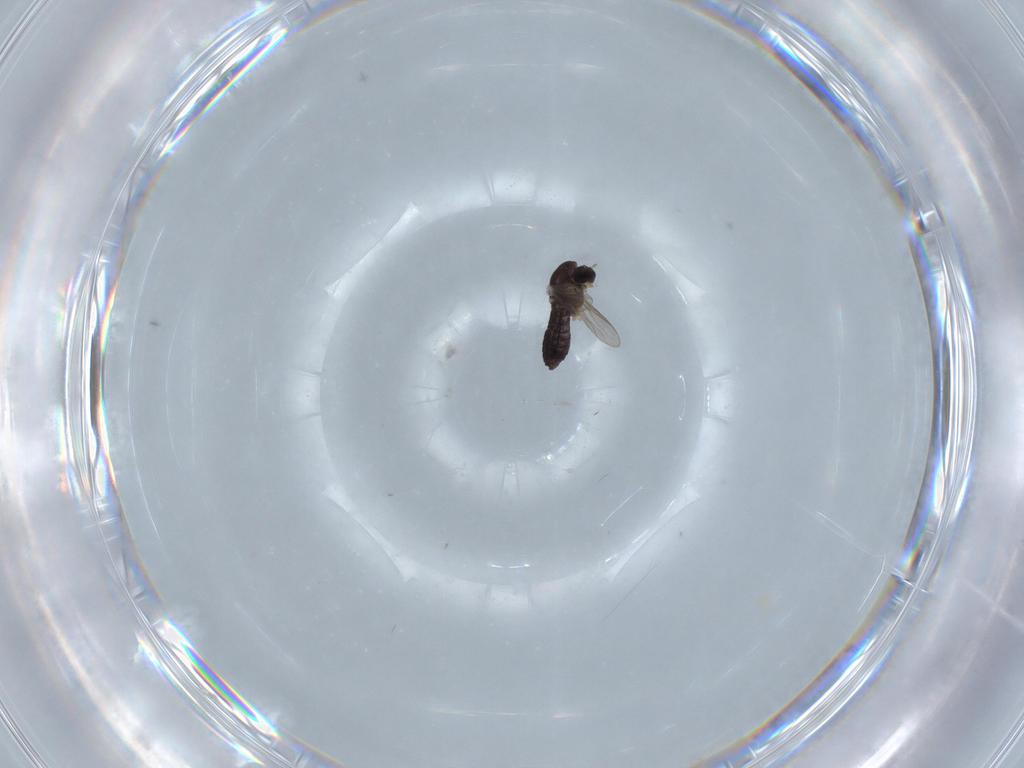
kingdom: Animalia
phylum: Arthropoda
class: Insecta
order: Diptera
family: Chironomidae
